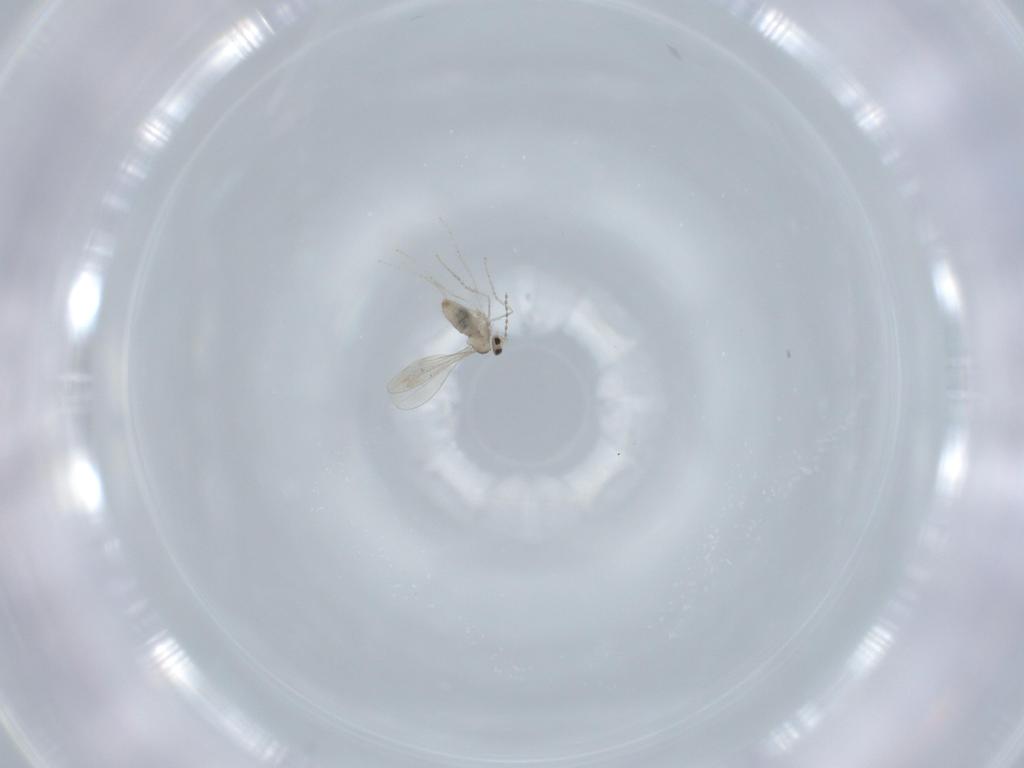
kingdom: Animalia
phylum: Arthropoda
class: Insecta
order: Diptera
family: Cecidomyiidae
